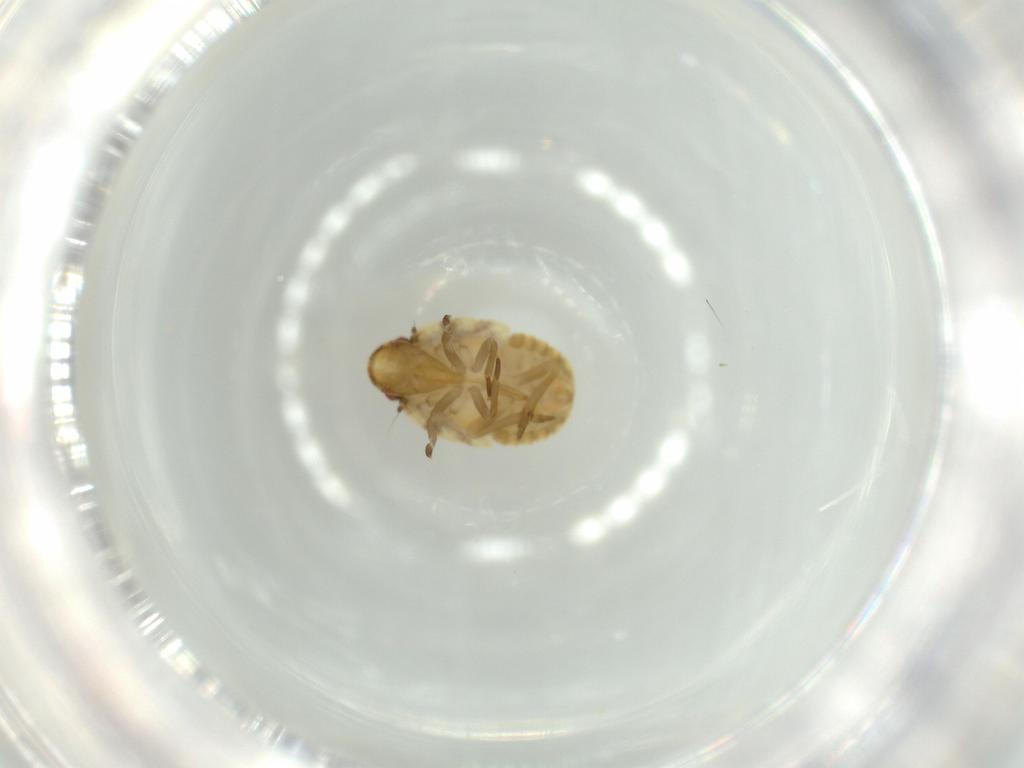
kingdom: Animalia
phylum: Arthropoda
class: Insecta
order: Hemiptera
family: Flatidae
